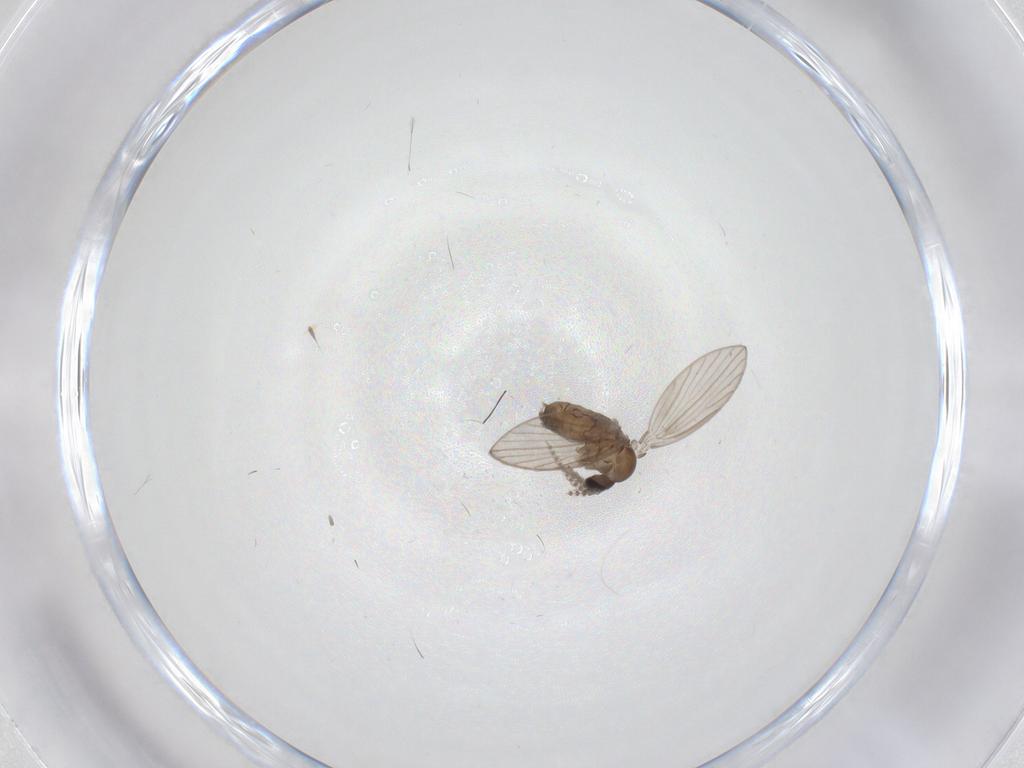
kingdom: Animalia
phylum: Arthropoda
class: Insecta
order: Diptera
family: Psychodidae
